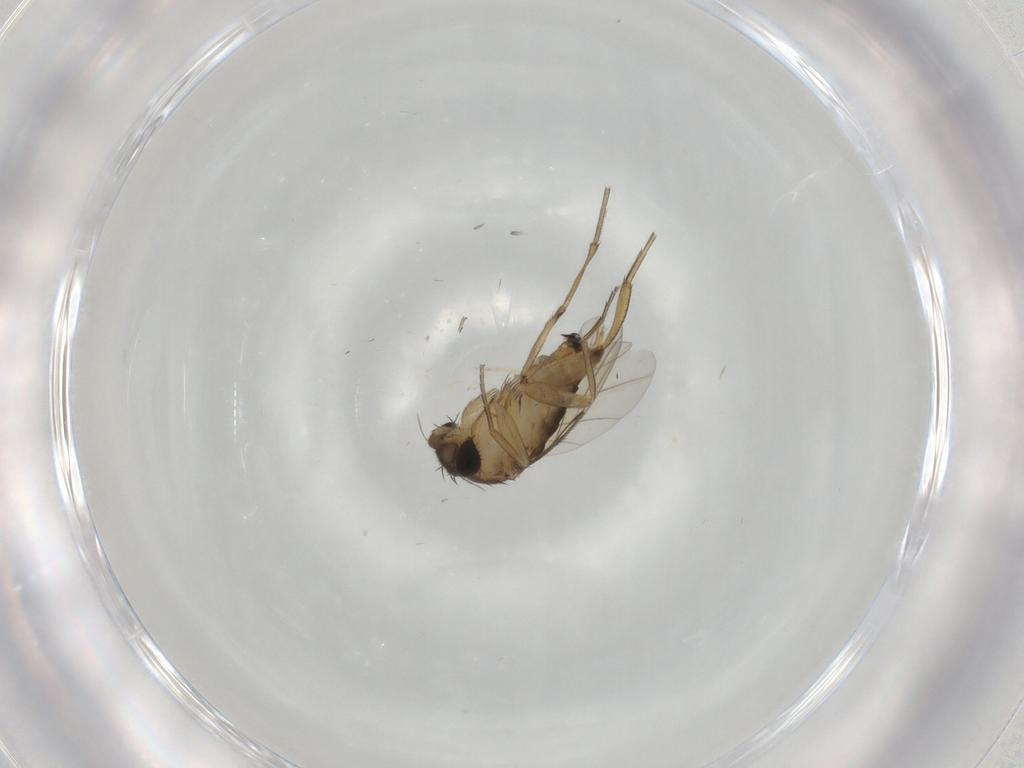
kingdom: Animalia
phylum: Arthropoda
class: Insecta
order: Diptera
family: Phoridae
